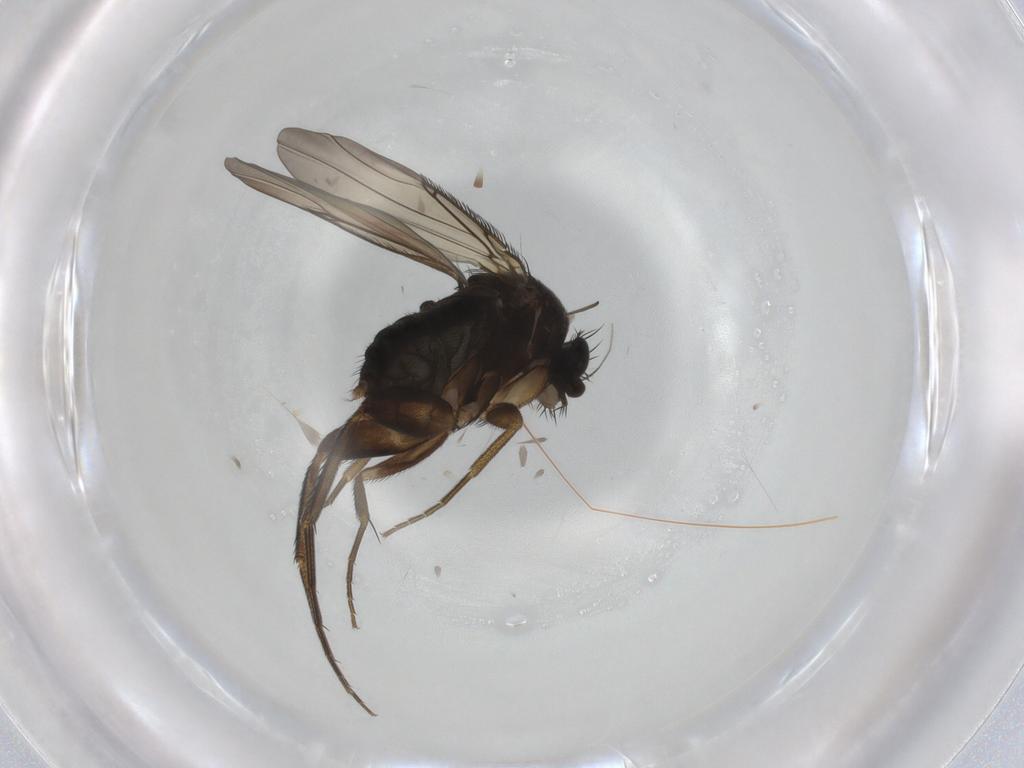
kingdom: Animalia
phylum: Arthropoda
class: Insecta
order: Diptera
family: Phoridae
